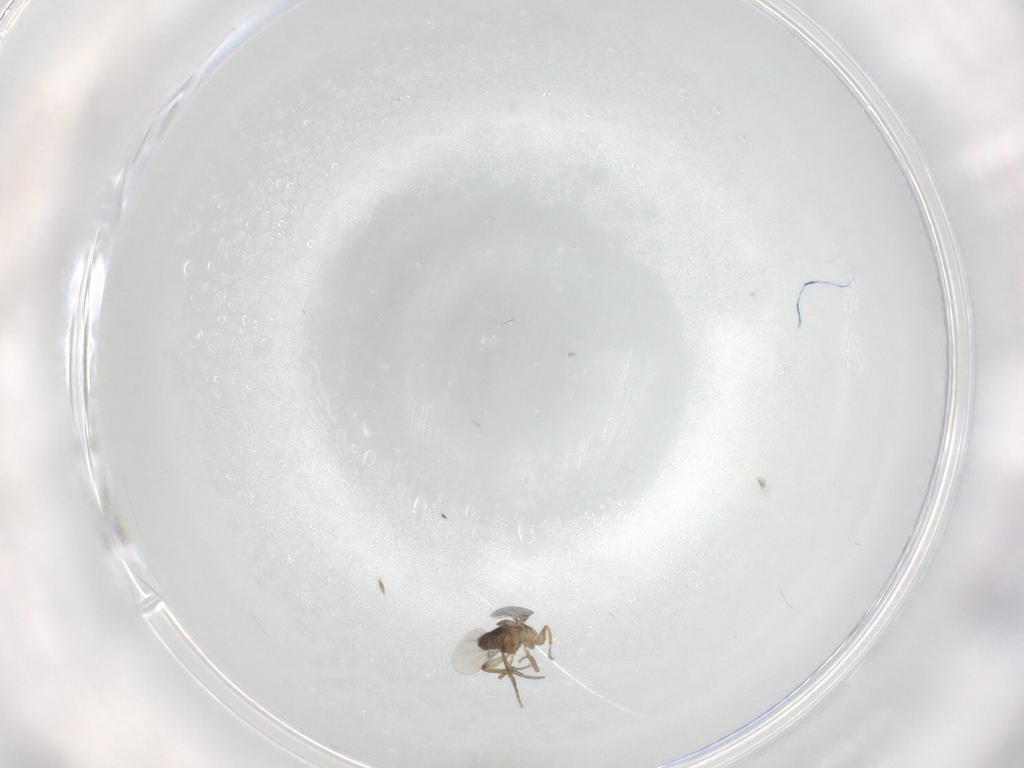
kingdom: Animalia
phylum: Arthropoda
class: Insecta
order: Diptera
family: Phoridae
